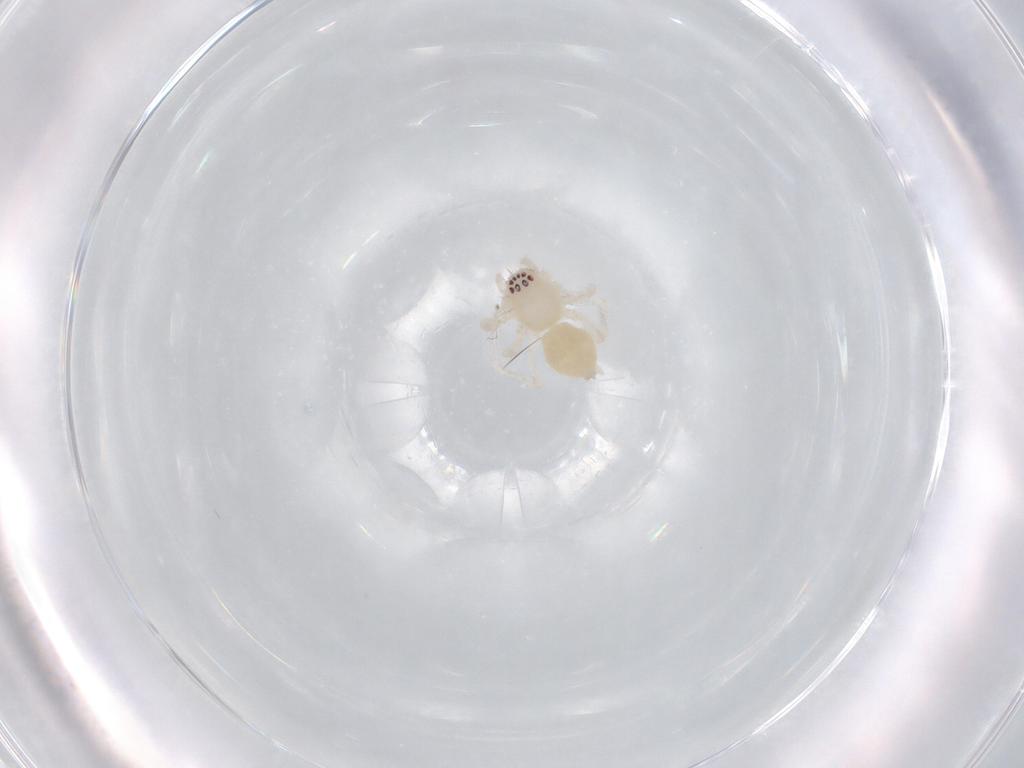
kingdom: Animalia
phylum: Arthropoda
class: Arachnida
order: Araneae
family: Anyphaenidae
